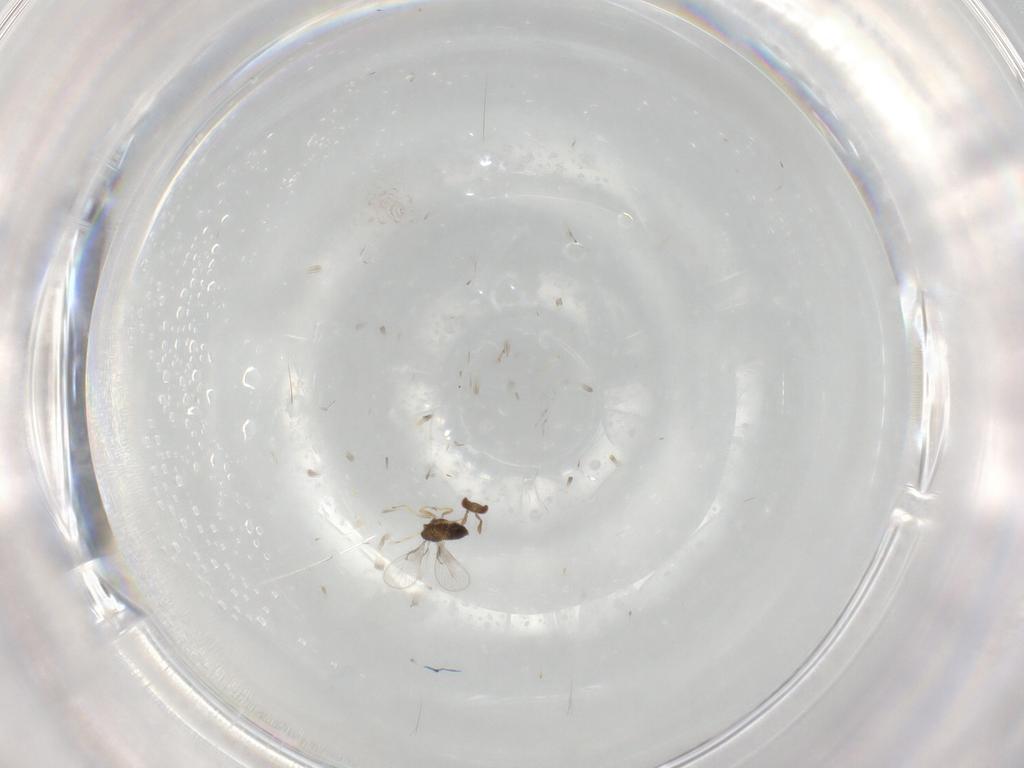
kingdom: Animalia
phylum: Arthropoda
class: Insecta
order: Hymenoptera
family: Trichogrammatidae
